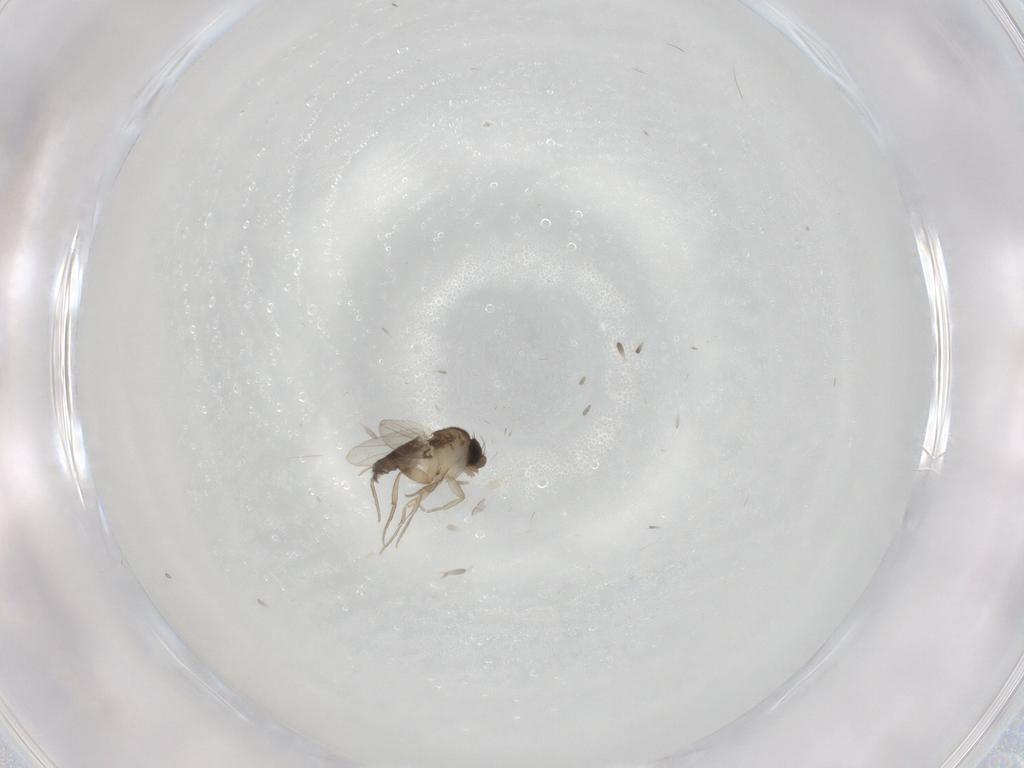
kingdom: Animalia
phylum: Arthropoda
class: Insecta
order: Diptera
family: Phoridae
